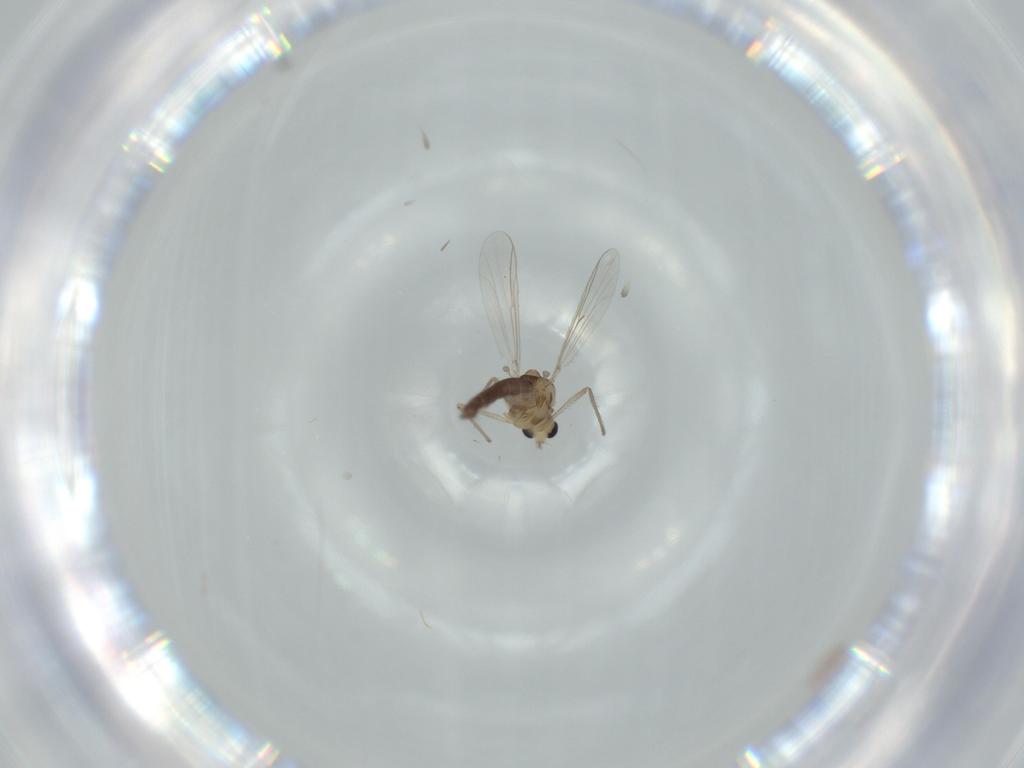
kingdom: Animalia
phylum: Arthropoda
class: Insecta
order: Diptera
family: Chironomidae
